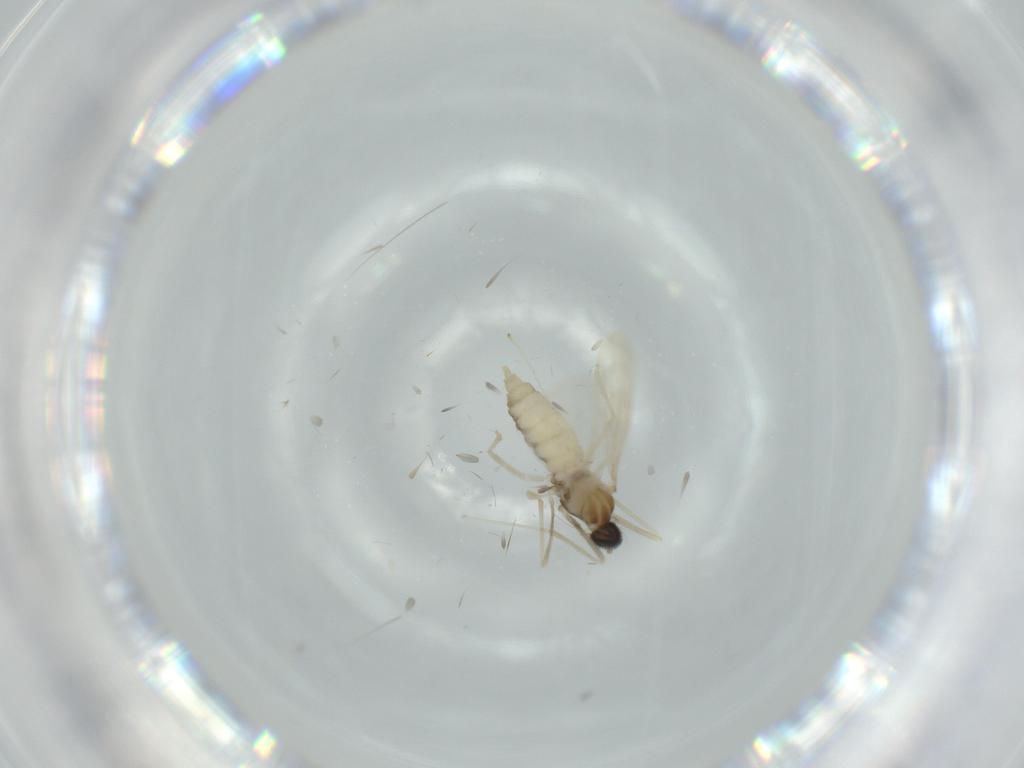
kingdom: Animalia
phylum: Arthropoda
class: Insecta
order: Diptera
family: Cecidomyiidae
